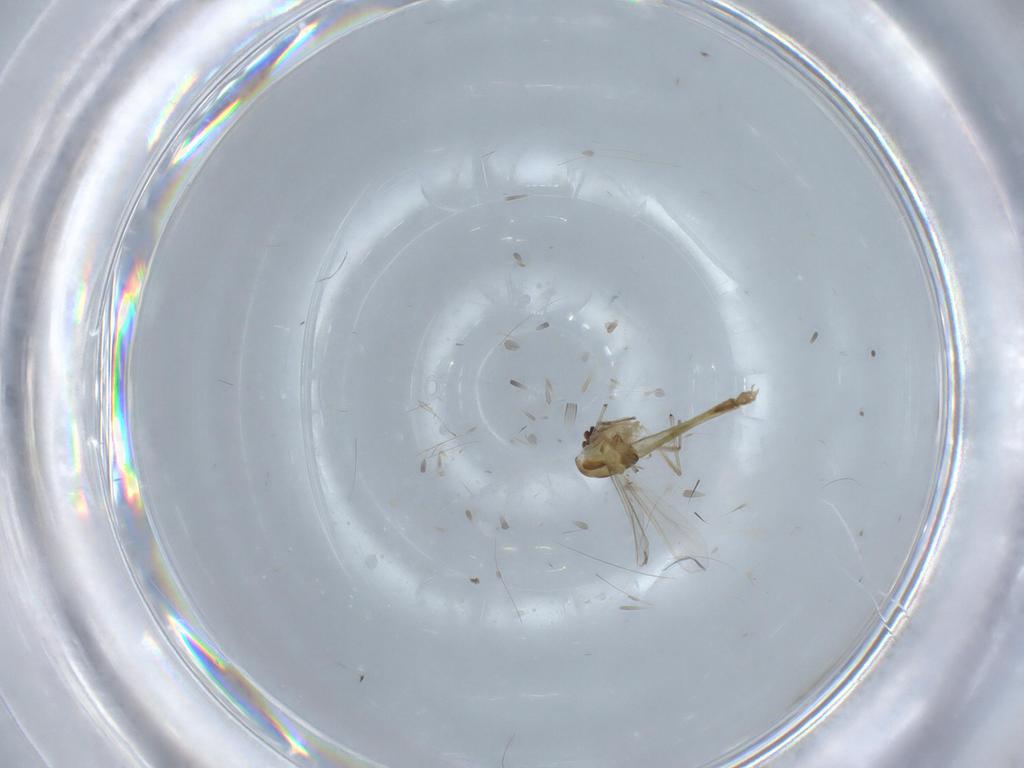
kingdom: Animalia
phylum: Arthropoda
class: Insecta
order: Diptera
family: Chironomidae
